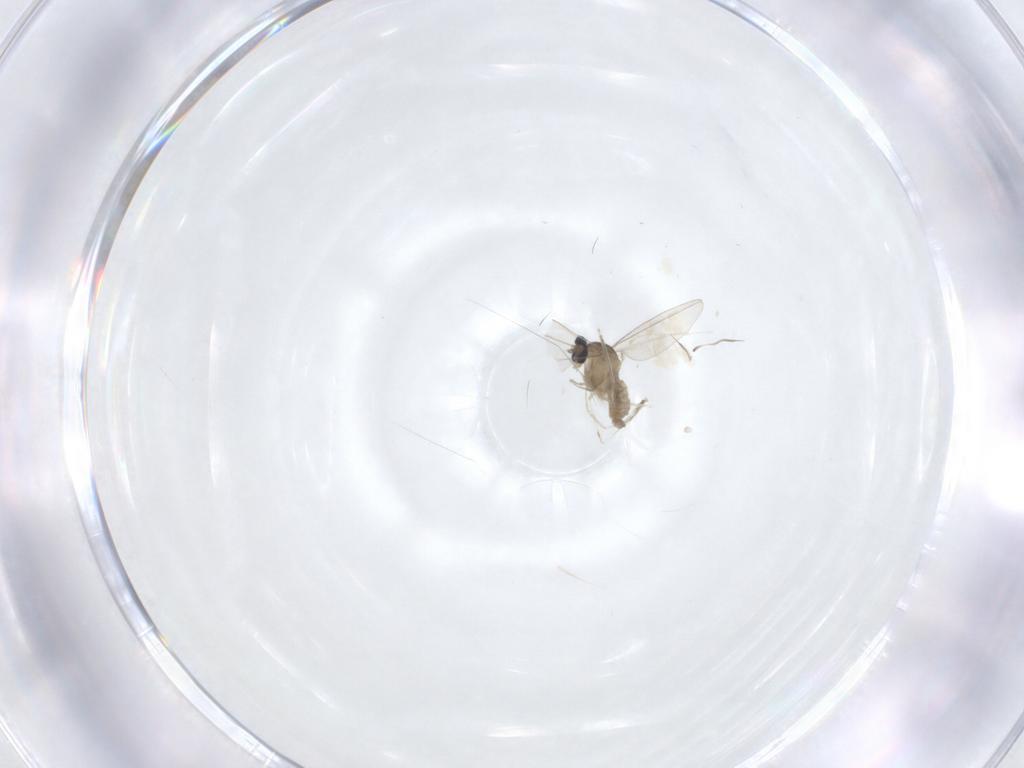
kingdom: Animalia
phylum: Arthropoda
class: Insecta
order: Diptera
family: Cecidomyiidae
